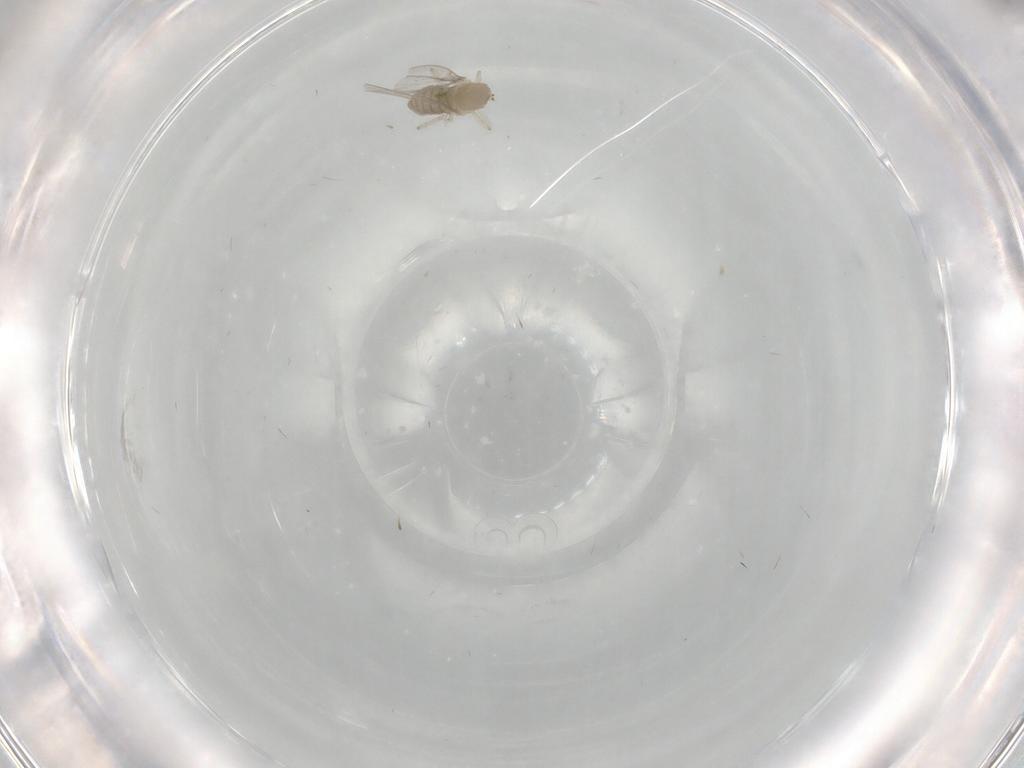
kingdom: Animalia
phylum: Arthropoda
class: Insecta
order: Diptera
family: Cecidomyiidae
